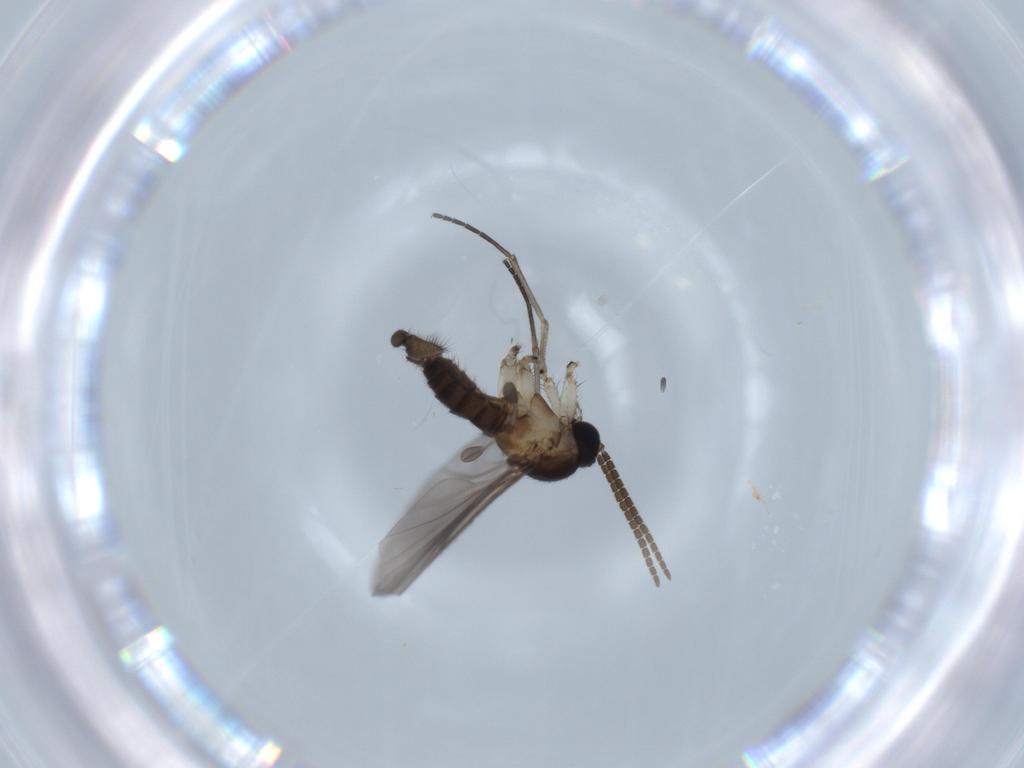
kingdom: Animalia
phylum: Arthropoda
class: Insecta
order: Diptera
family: Sciaridae
